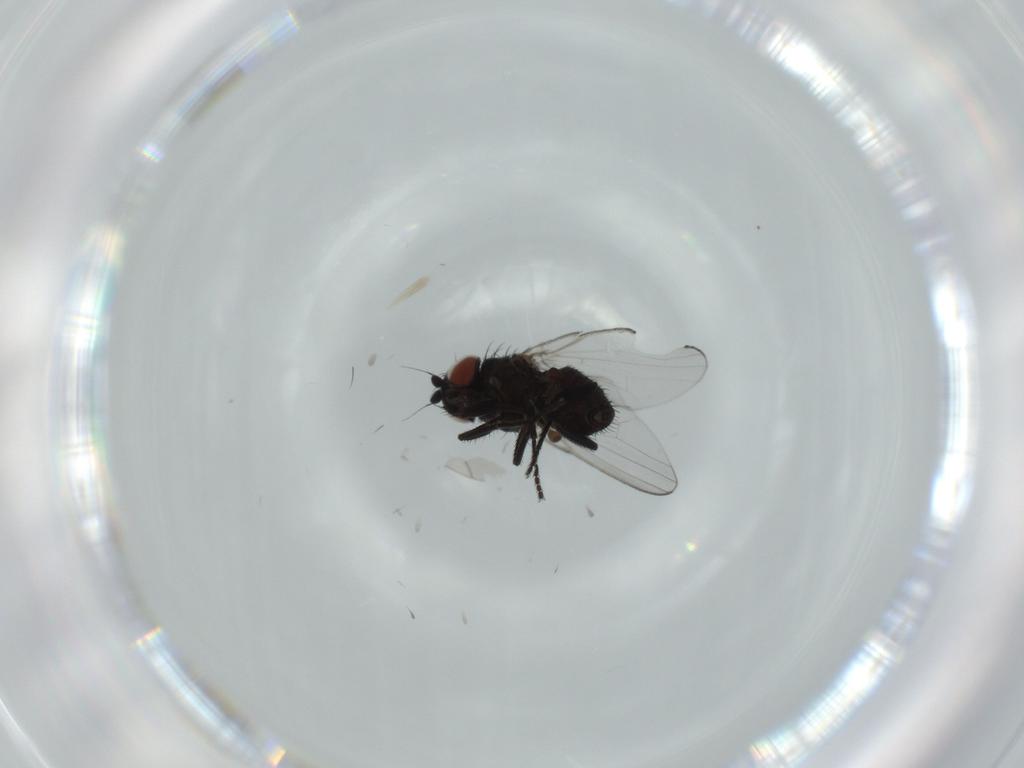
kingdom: Animalia
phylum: Arthropoda
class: Insecta
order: Diptera
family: Milichiidae
